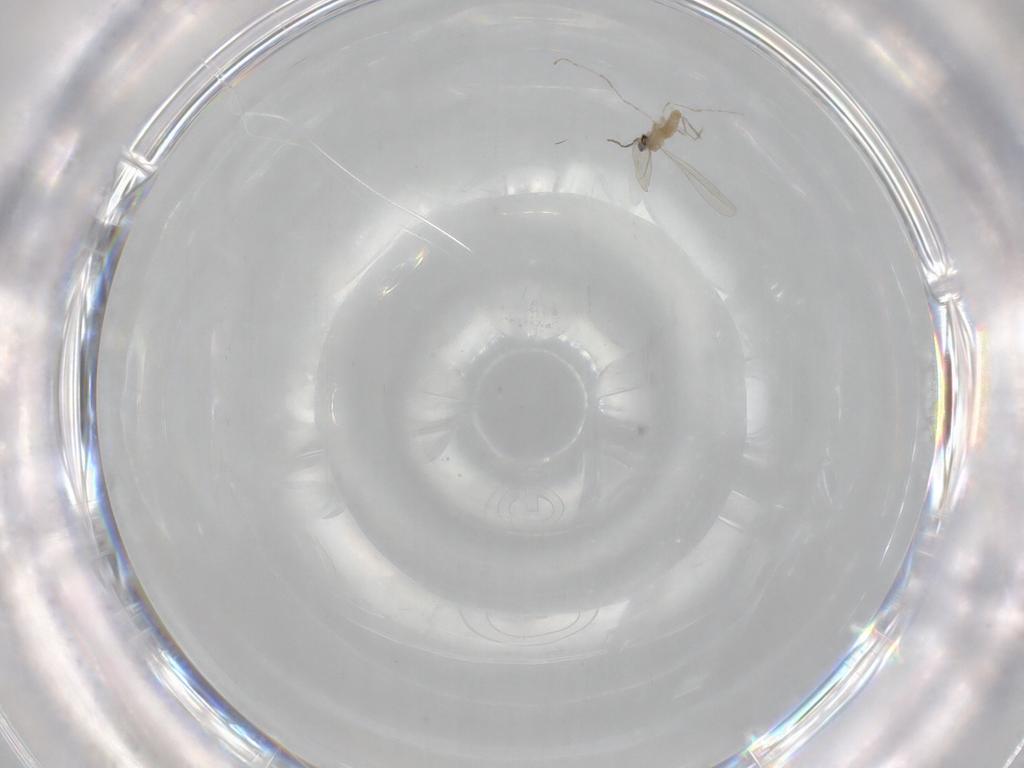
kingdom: Animalia
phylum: Arthropoda
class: Insecta
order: Diptera
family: Cecidomyiidae
